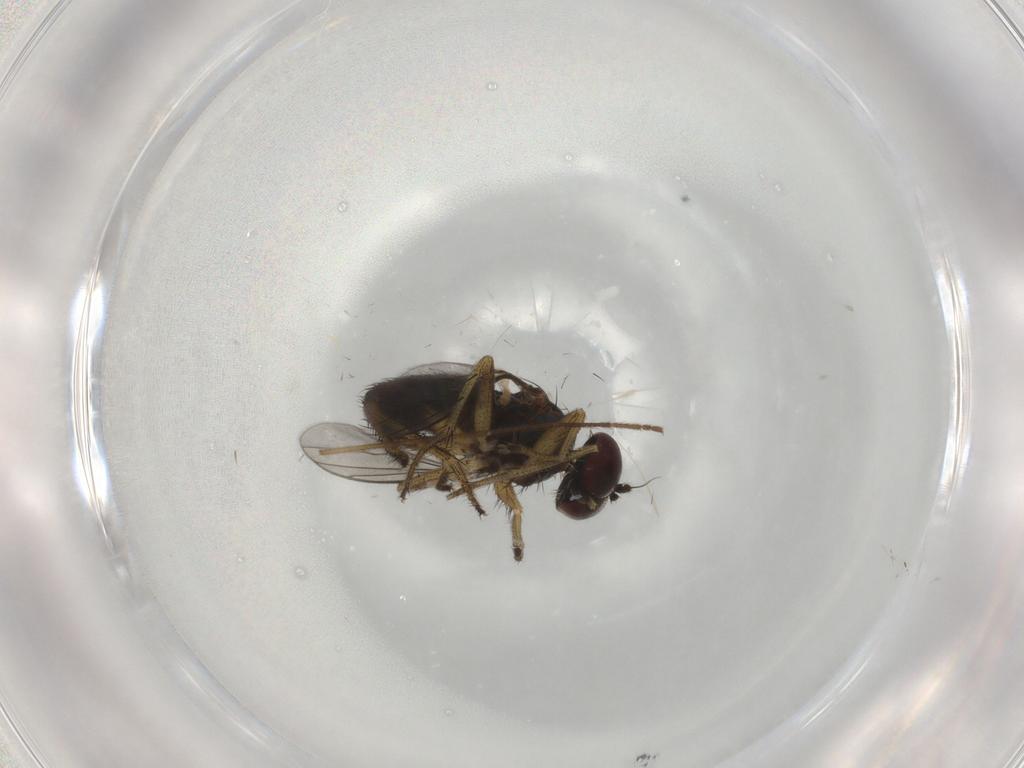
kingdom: Animalia
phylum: Arthropoda
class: Insecta
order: Diptera
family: Dolichopodidae
